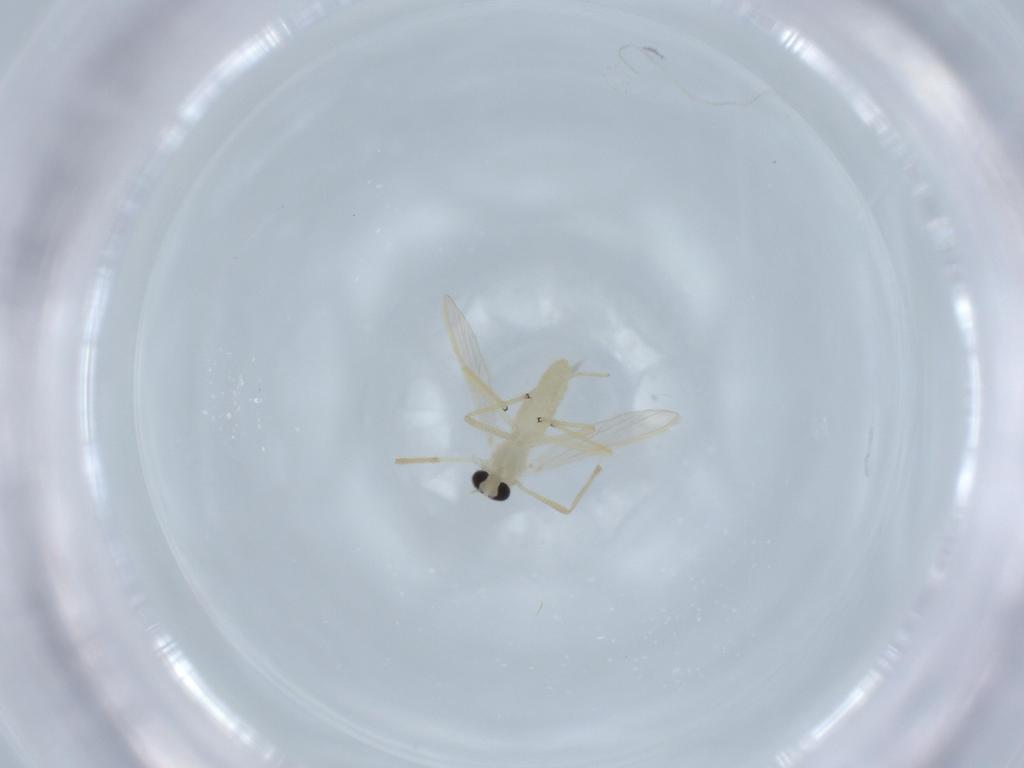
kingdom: Animalia
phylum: Arthropoda
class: Insecta
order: Diptera
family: Chironomidae
